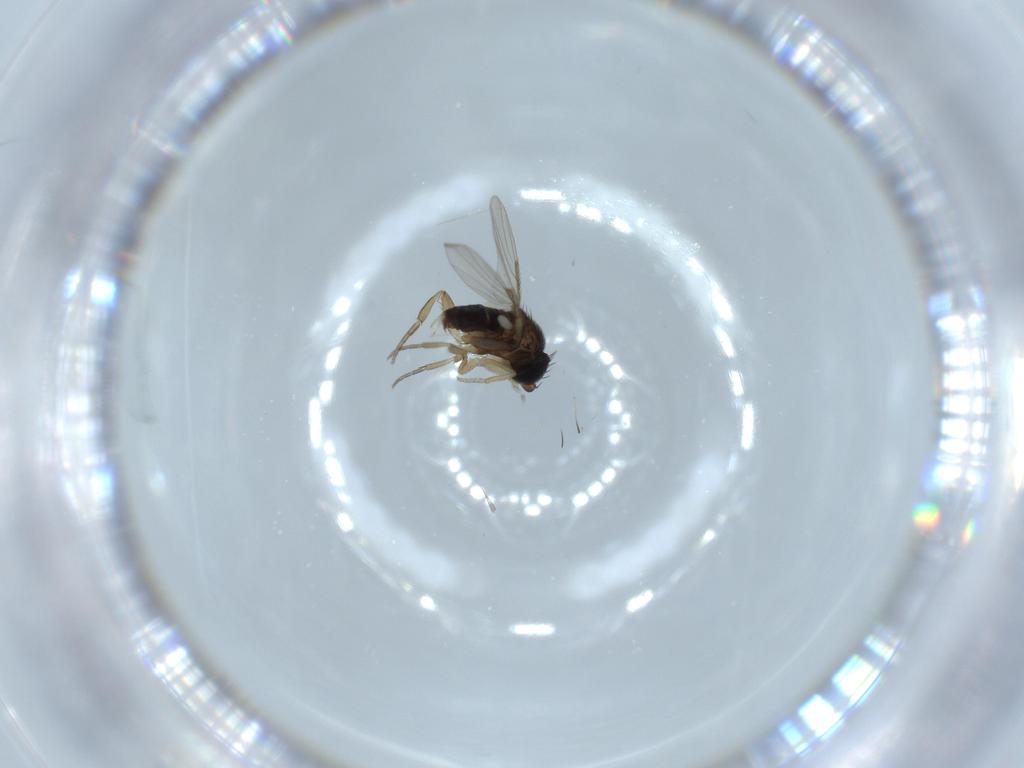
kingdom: Animalia
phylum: Arthropoda
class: Insecta
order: Diptera
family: Phoridae
